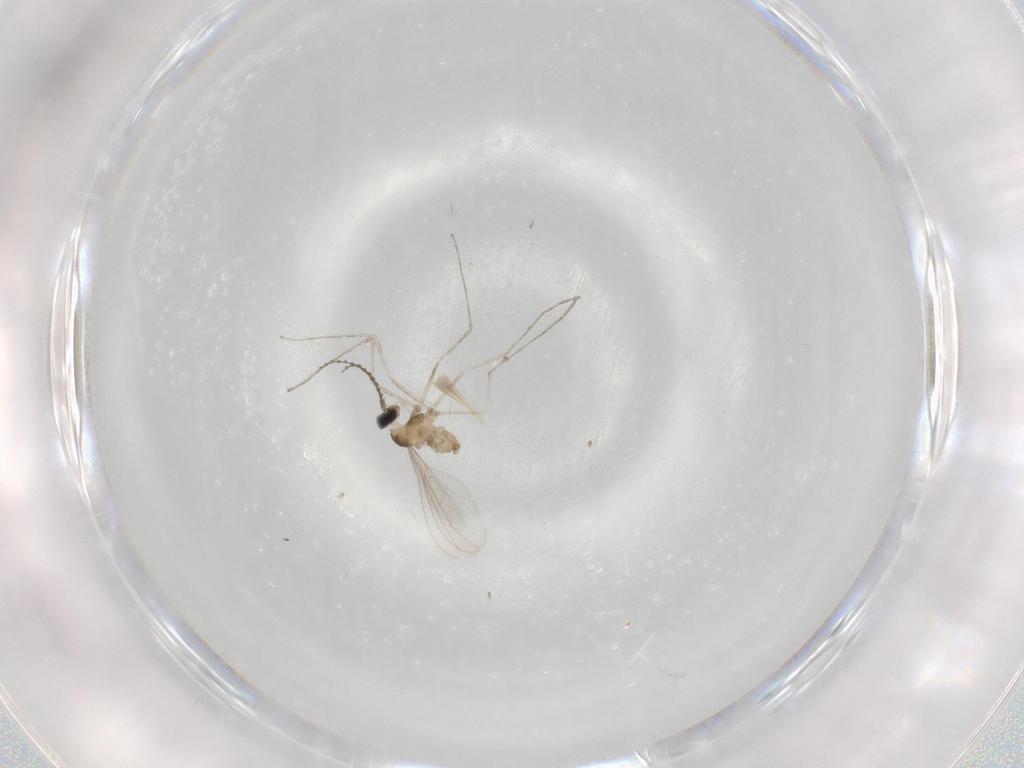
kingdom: Animalia
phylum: Arthropoda
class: Insecta
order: Diptera
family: Cecidomyiidae
